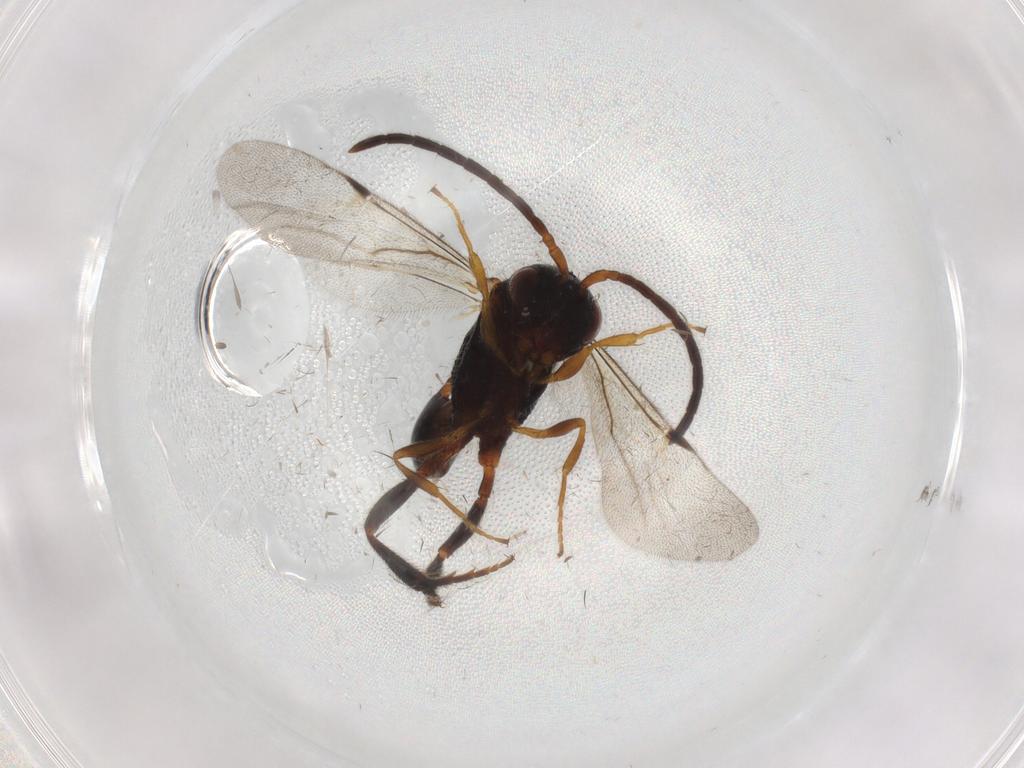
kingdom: Animalia
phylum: Arthropoda
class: Insecta
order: Hymenoptera
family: Evaniidae
